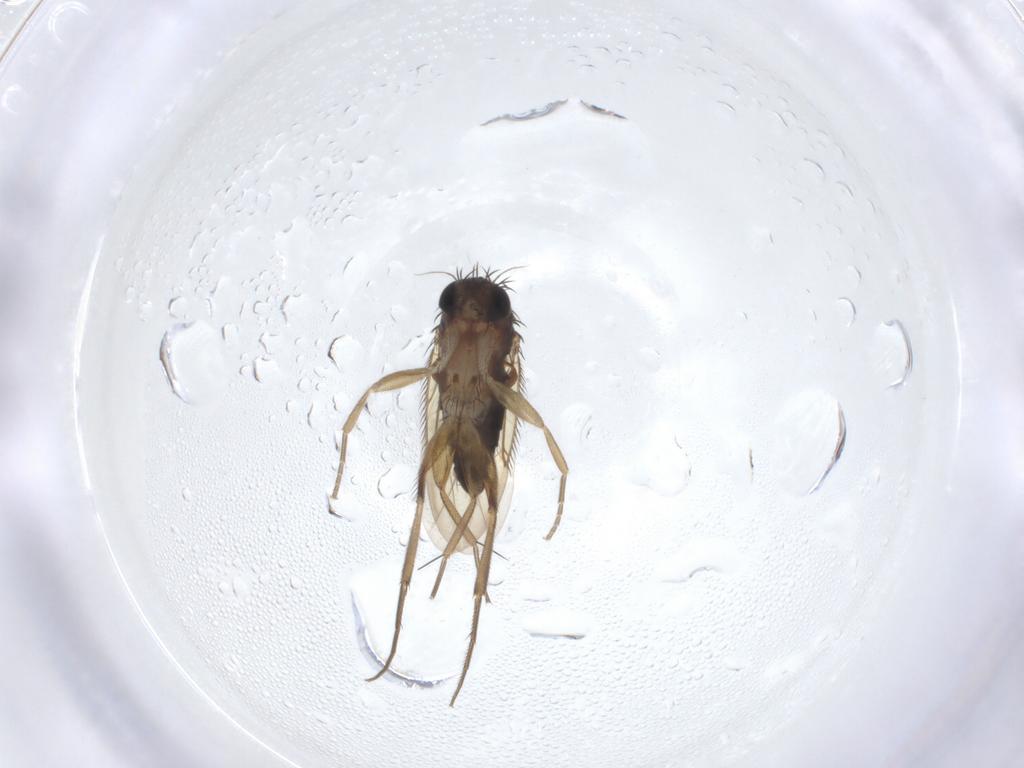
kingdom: Animalia
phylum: Arthropoda
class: Insecta
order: Diptera
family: Phoridae
